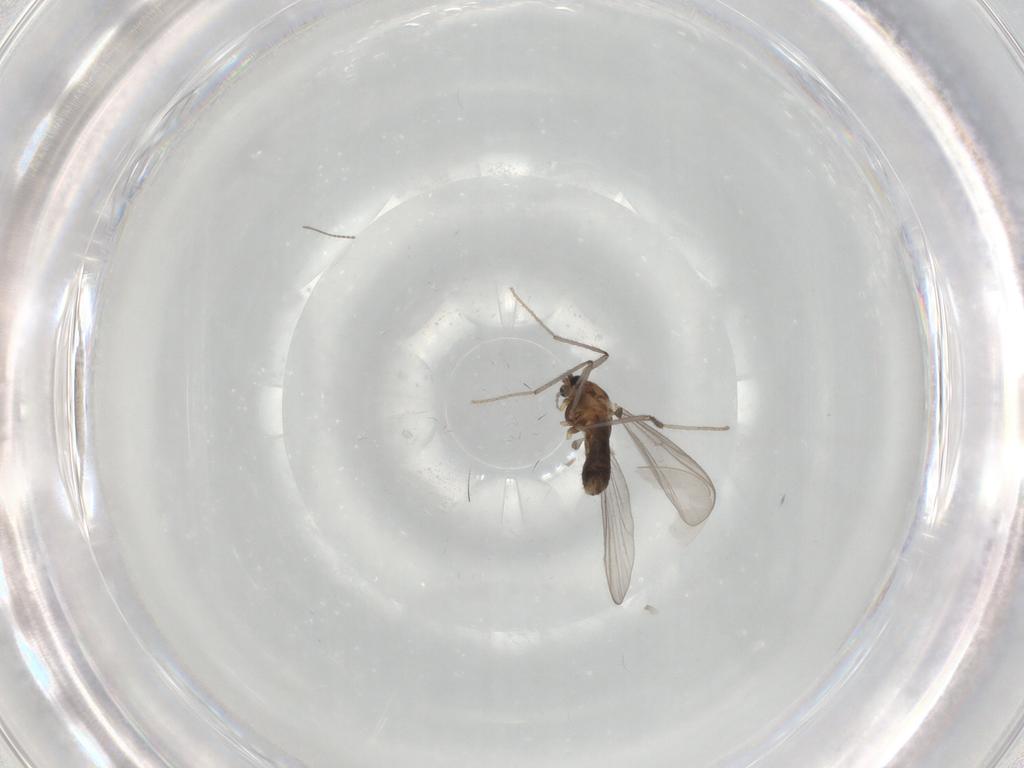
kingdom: Animalia
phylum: Arthropoda
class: Insecta
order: Diptera
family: Chironomidae
